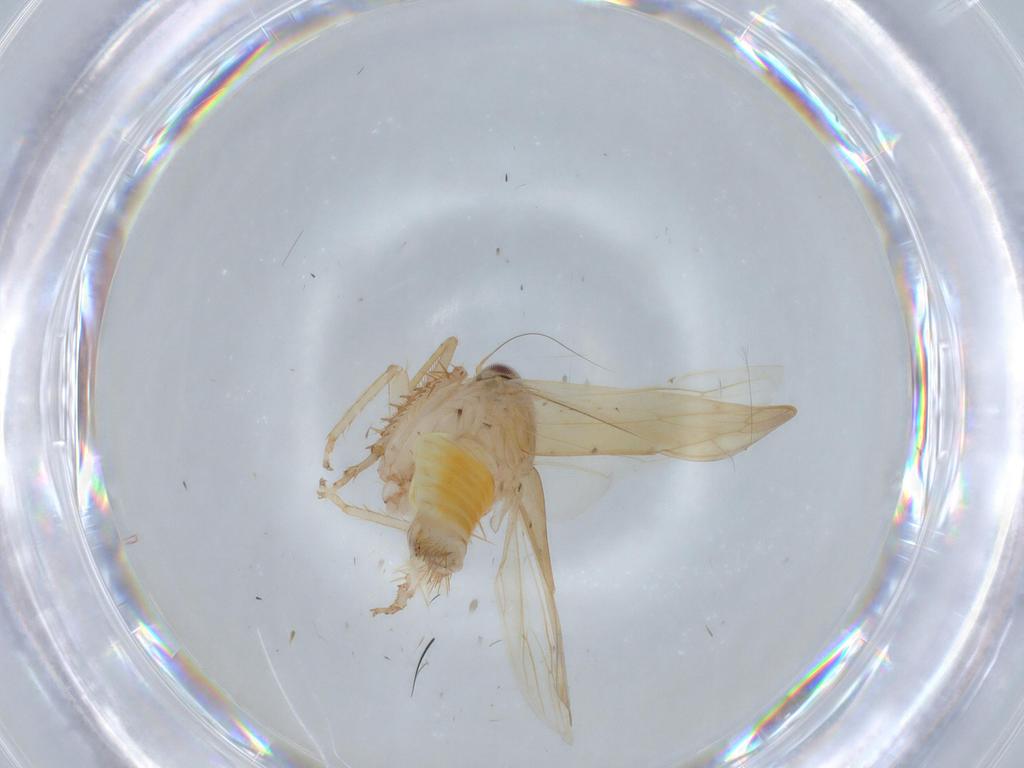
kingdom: Animalia
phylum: Arthropoda
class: Insecta
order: Hemiptera
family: Cicadellidae
